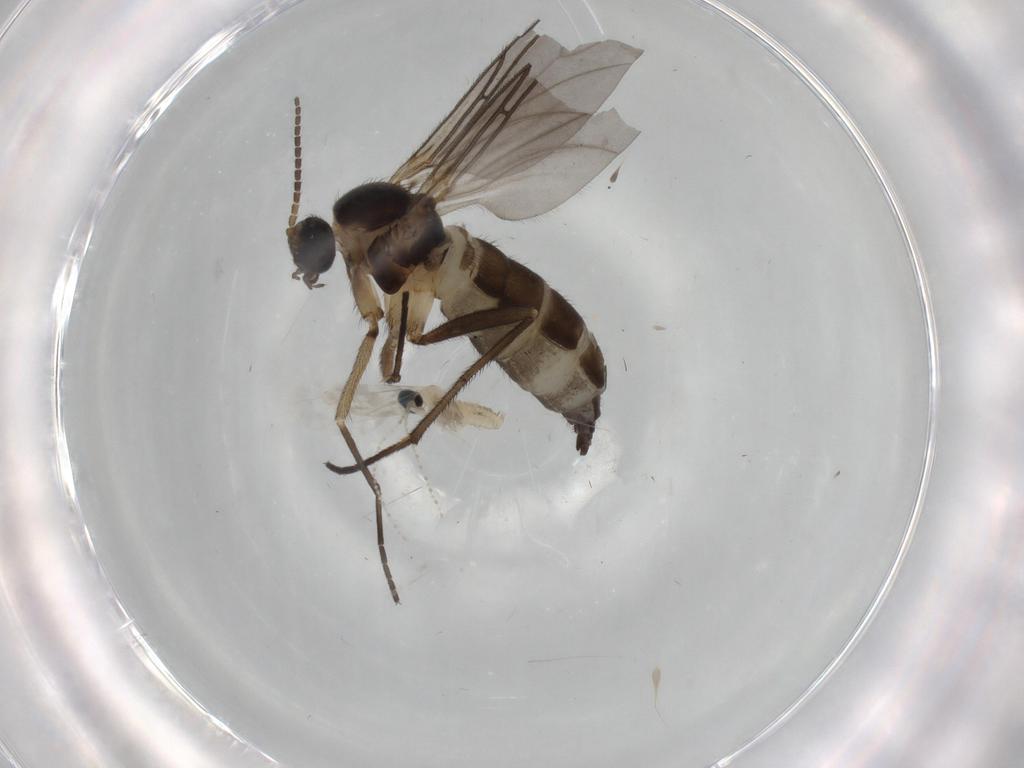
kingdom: Animalia
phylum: Arthropoda
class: Insecta
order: Diptera
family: Cecidomyiidae
